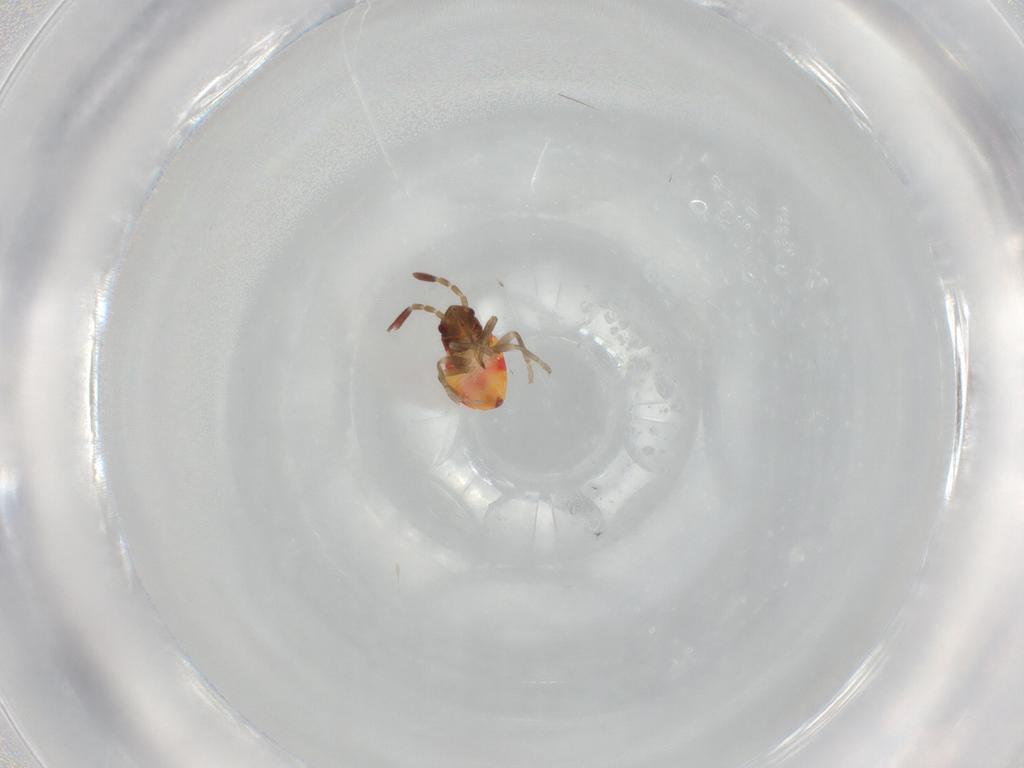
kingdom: Animalia
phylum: Arthropoda
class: Insecta
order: Hemiptera
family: Rhyparochromidae
